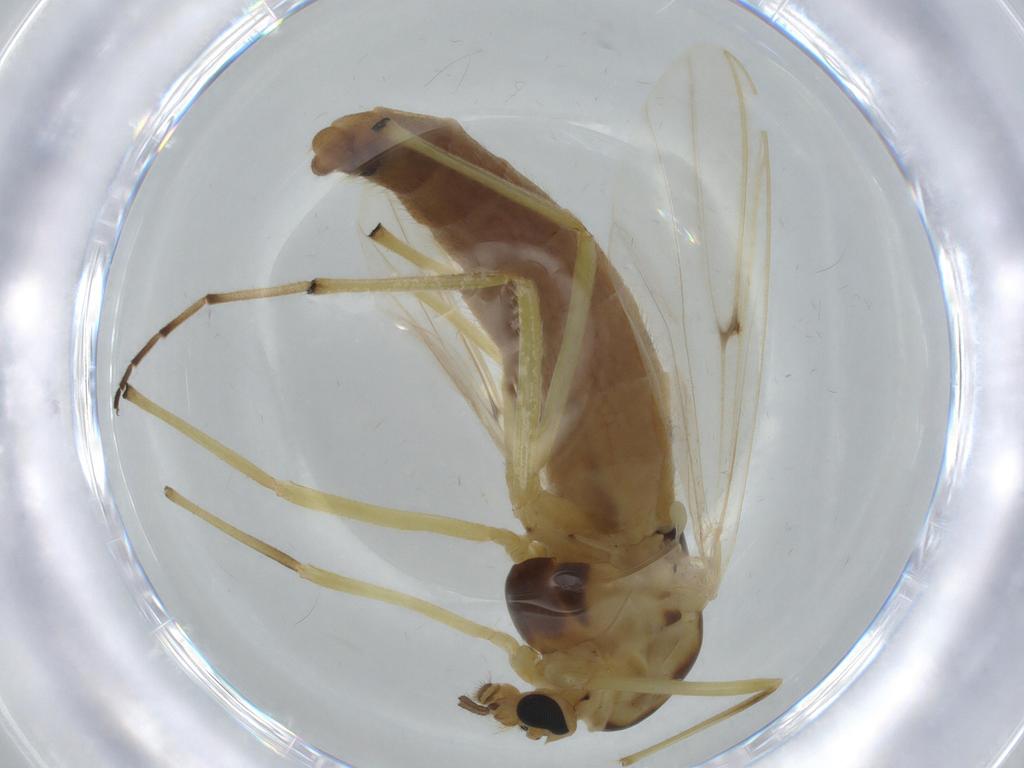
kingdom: Animalia
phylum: Arthropoda
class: Insecta
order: Diptera
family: Chironomidae
